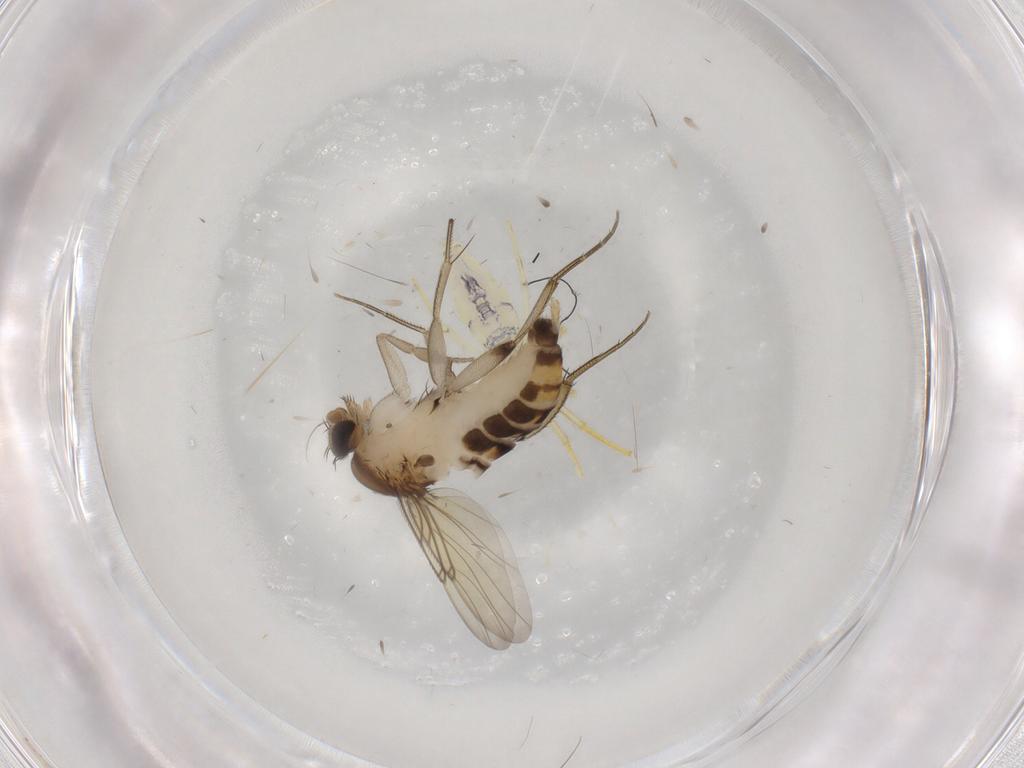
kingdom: Animalia
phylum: Arthropoda
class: Insecta
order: Diptera
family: Phoridae
